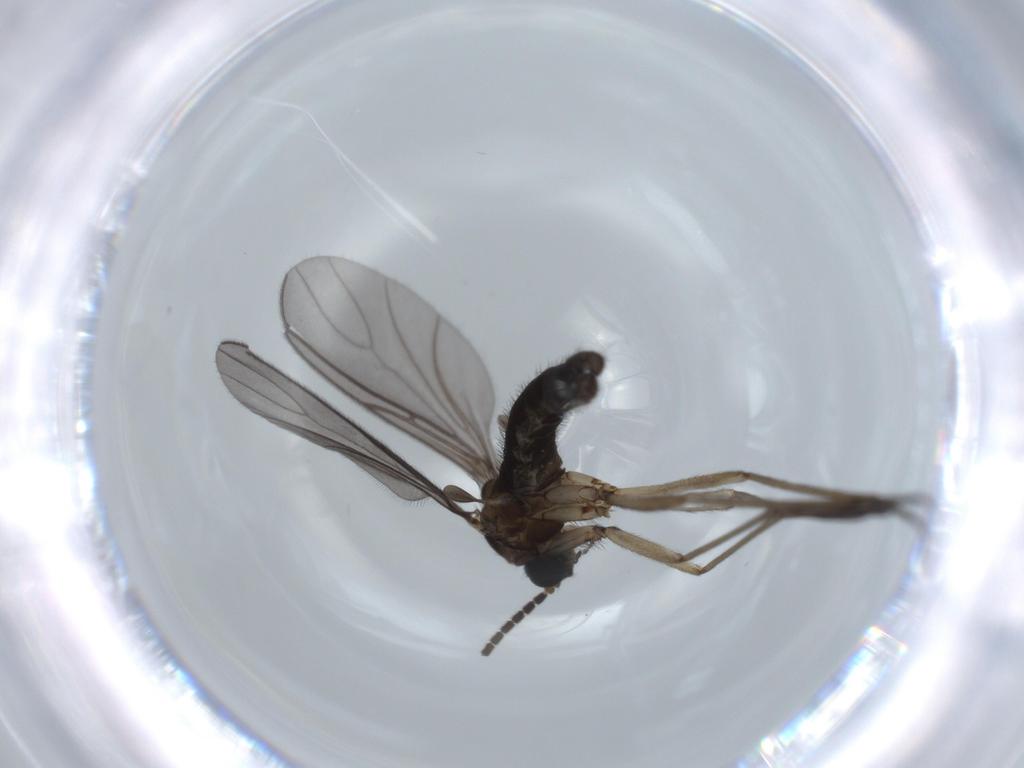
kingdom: Animalia
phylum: Arthropoda
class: Insecta
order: Diptera
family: Sciaridae
